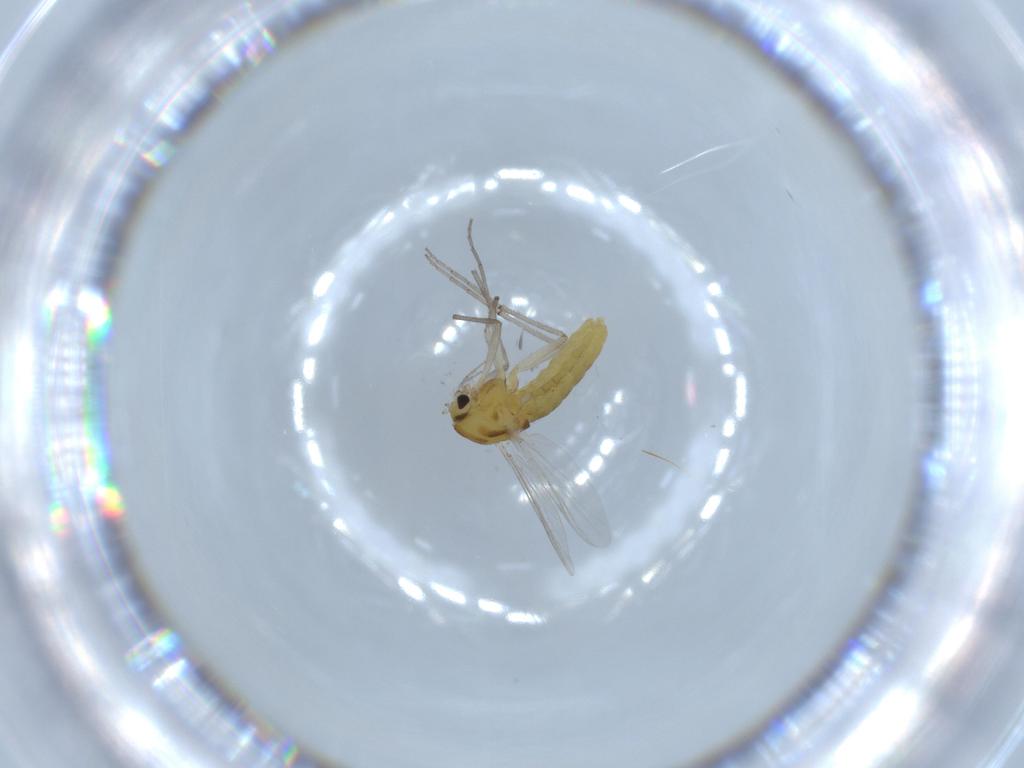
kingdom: Animalia
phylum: Arthropoda
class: Insecta
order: Diptera
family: Chironomidae
